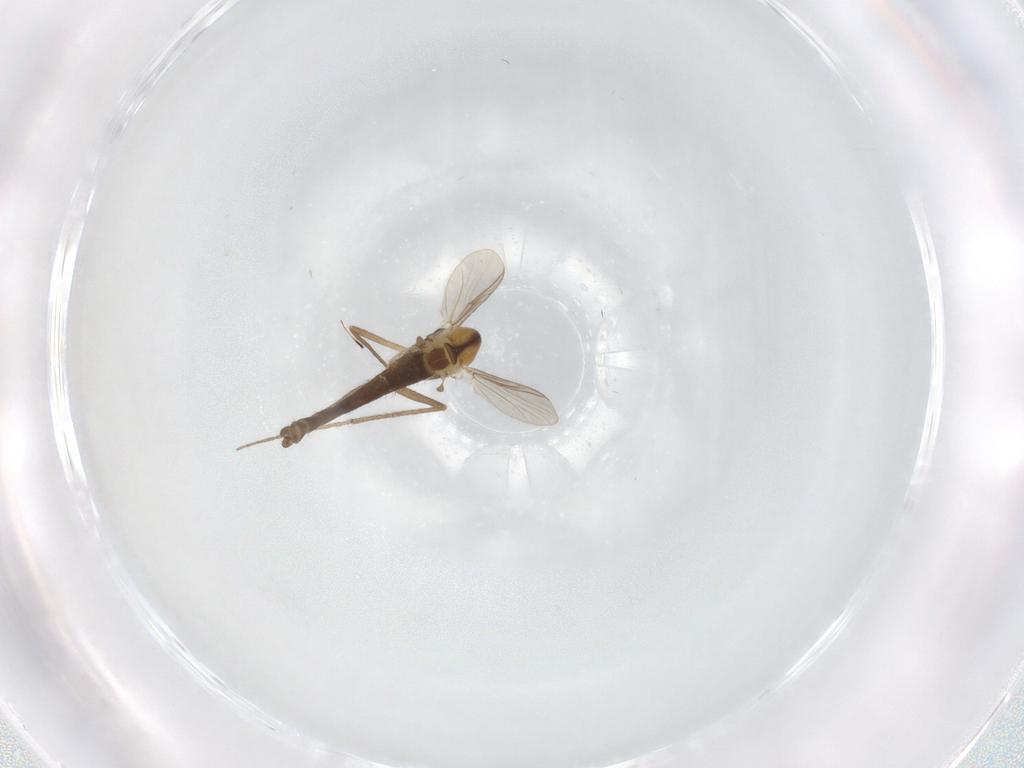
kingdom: Animalia
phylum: Arthropoda
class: Insecta
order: Diptera
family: Chironomidae
